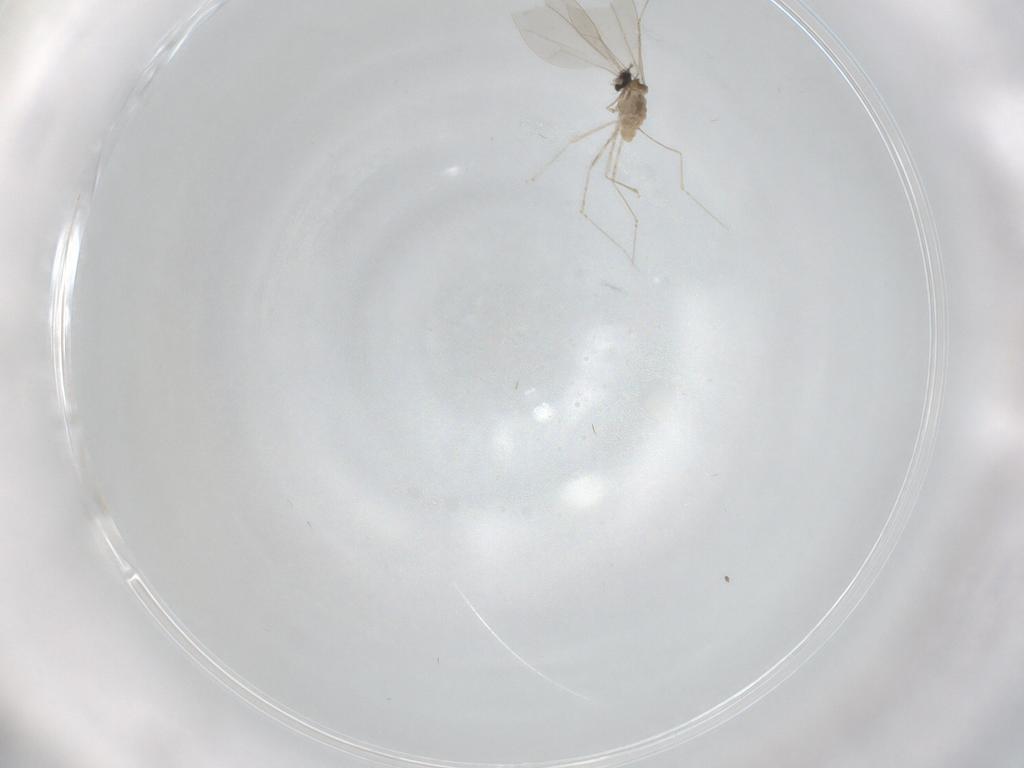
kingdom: Animalia
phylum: Arthropoda
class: Insecta
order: Diptera
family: Cecidomyiidae
